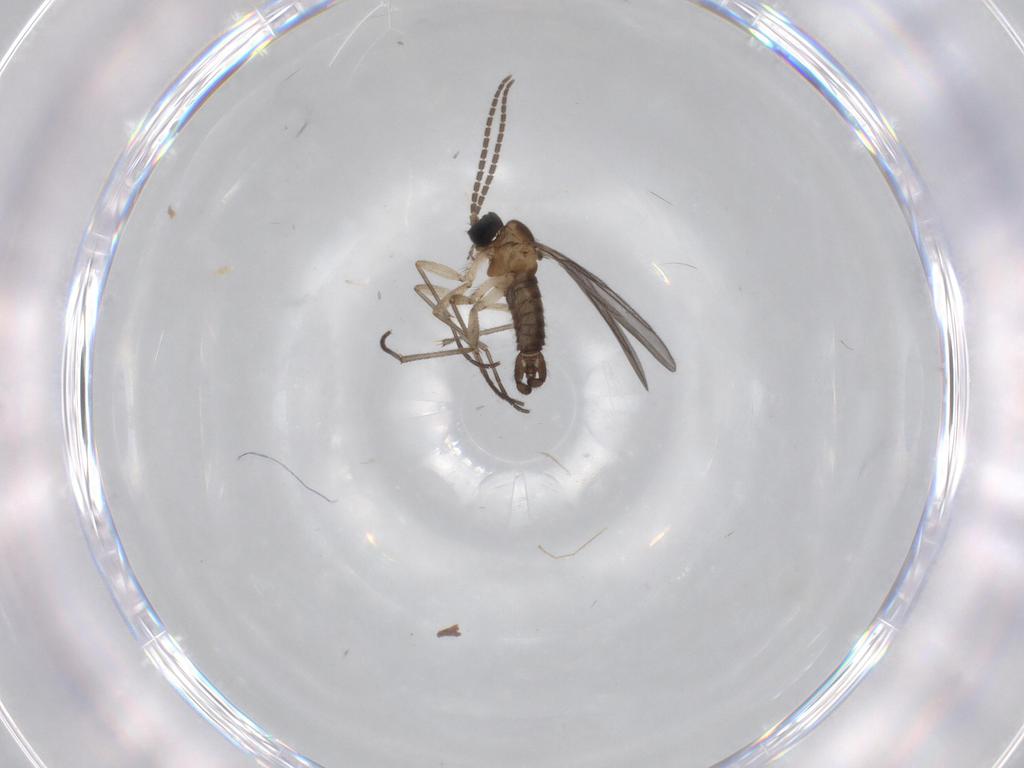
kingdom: Animalia
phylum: Arthropoda
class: Insecta
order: Diptera
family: Sciaridae
